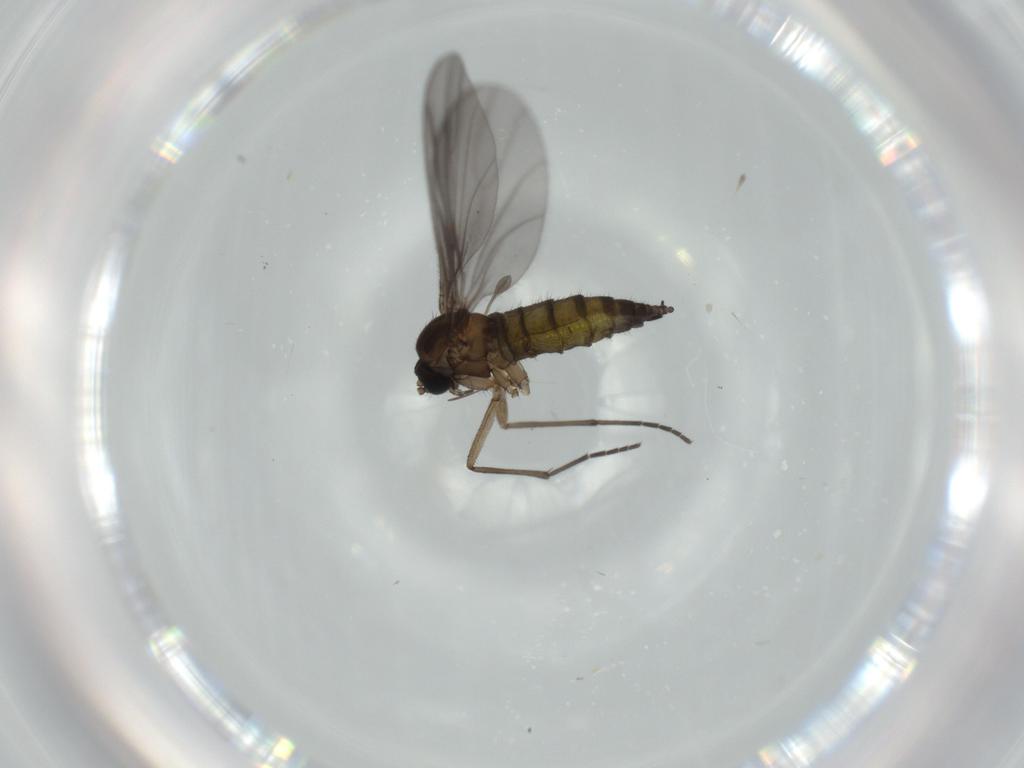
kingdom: Animalia
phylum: Arthropoda
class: Insecta
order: Diptera
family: Sciaridae
